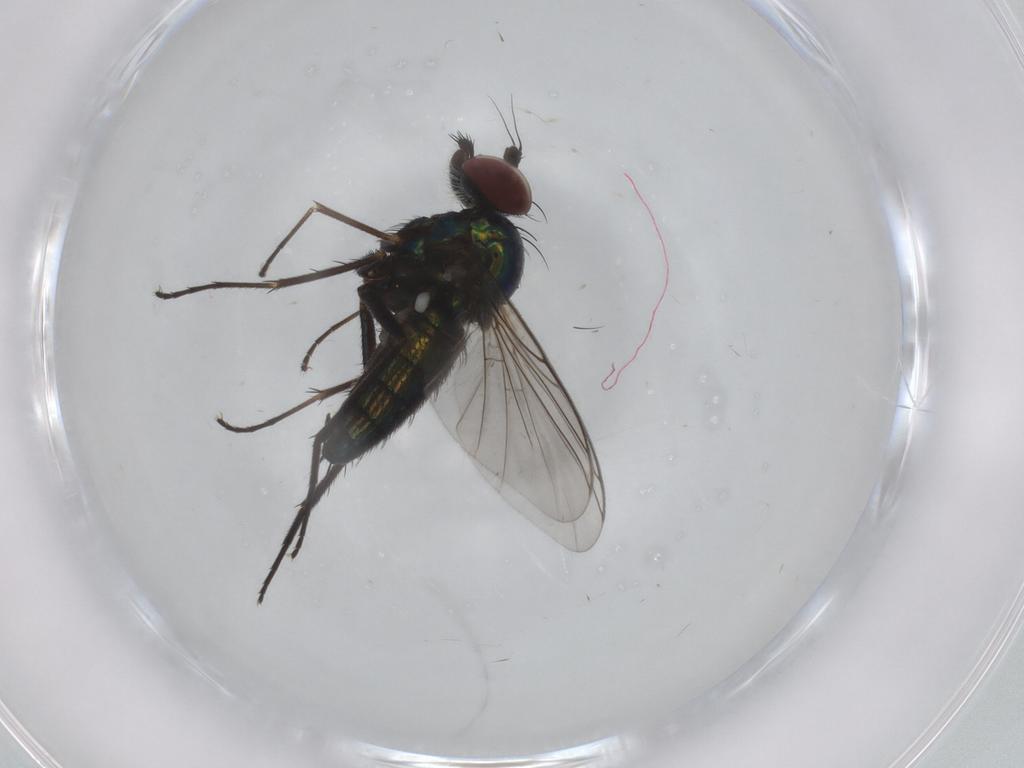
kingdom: Animalia
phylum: Arthropoda
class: Insecta
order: Diptera
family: Dolichopodidae
